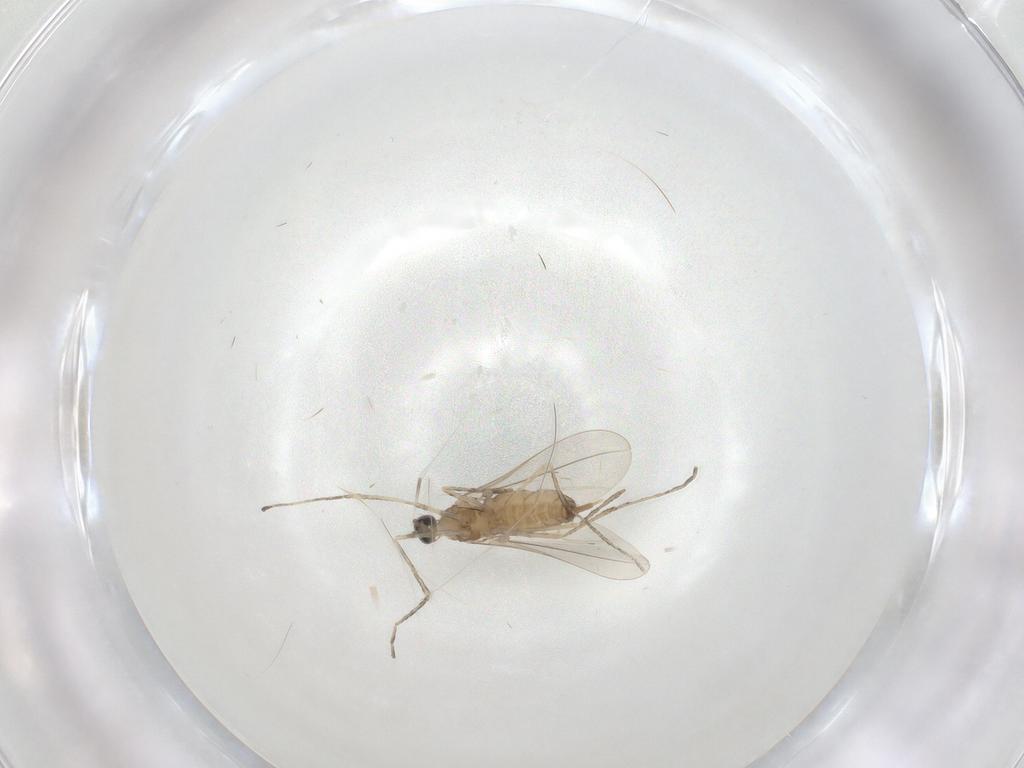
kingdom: Animalia
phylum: Arthropoda
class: Insecta
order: Diptera
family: Cecidomyiidae
